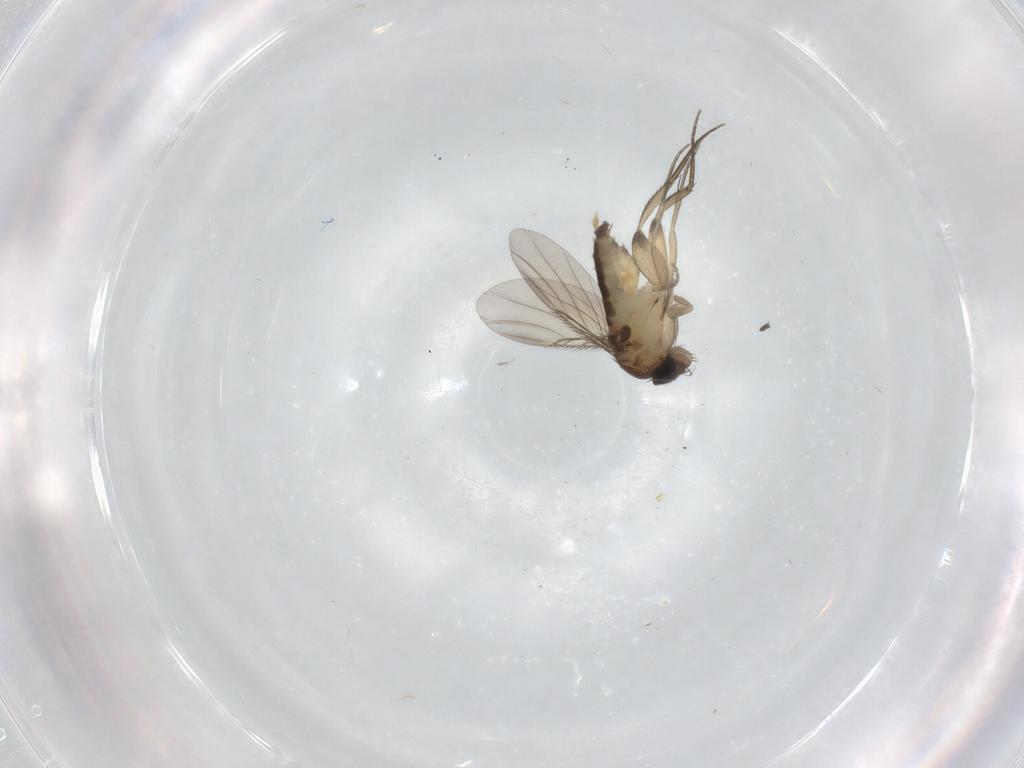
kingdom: Animalia
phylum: Arthropoda
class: Insecta
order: Diptera
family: Phoridae
